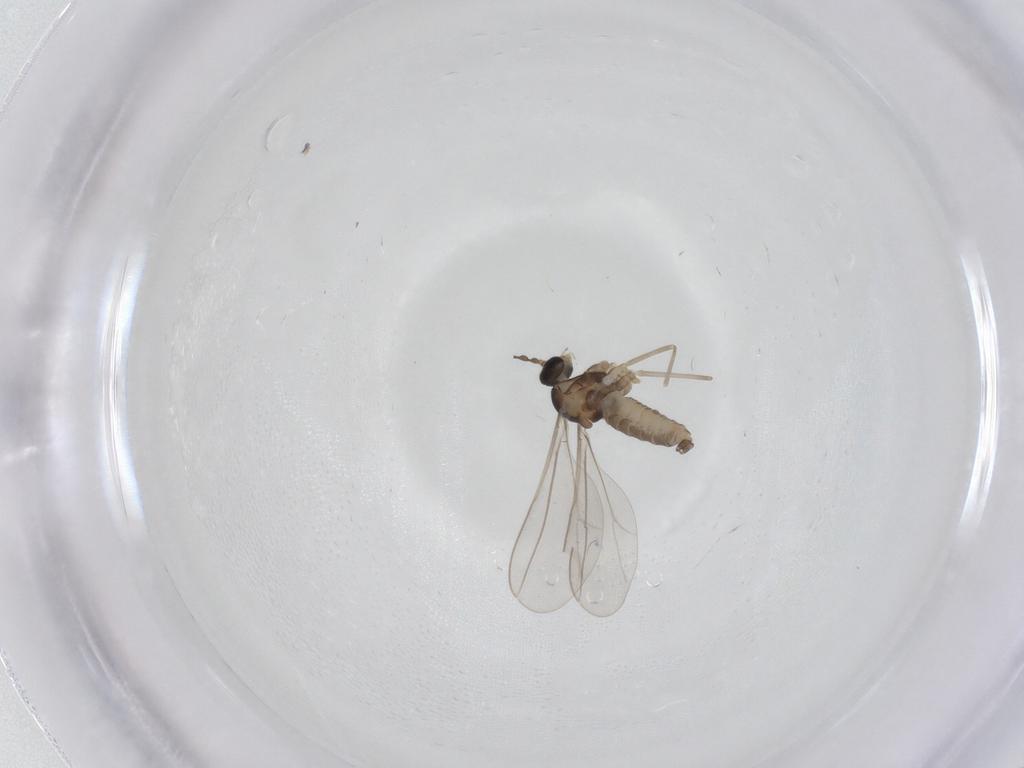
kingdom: Animalia
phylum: Arthropoda
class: Insecta
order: Diptera
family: Cecidomyiidae
